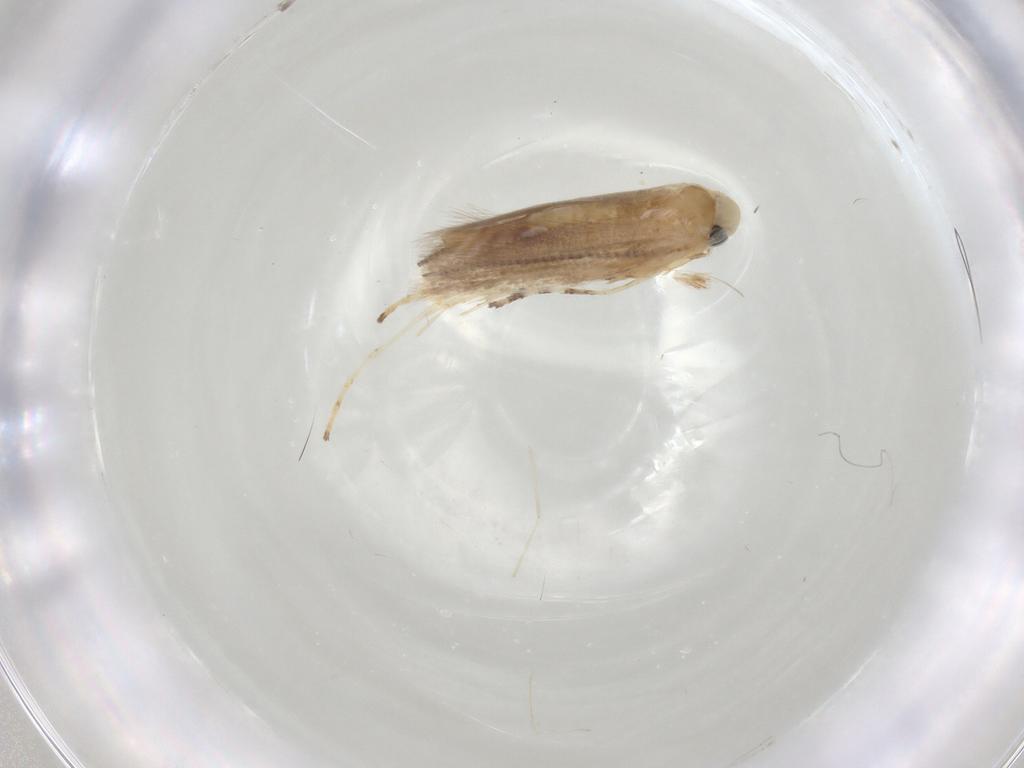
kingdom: Animalia
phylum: Arthropoda
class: Insecta
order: Lepidoptera
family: Gracillariidae
